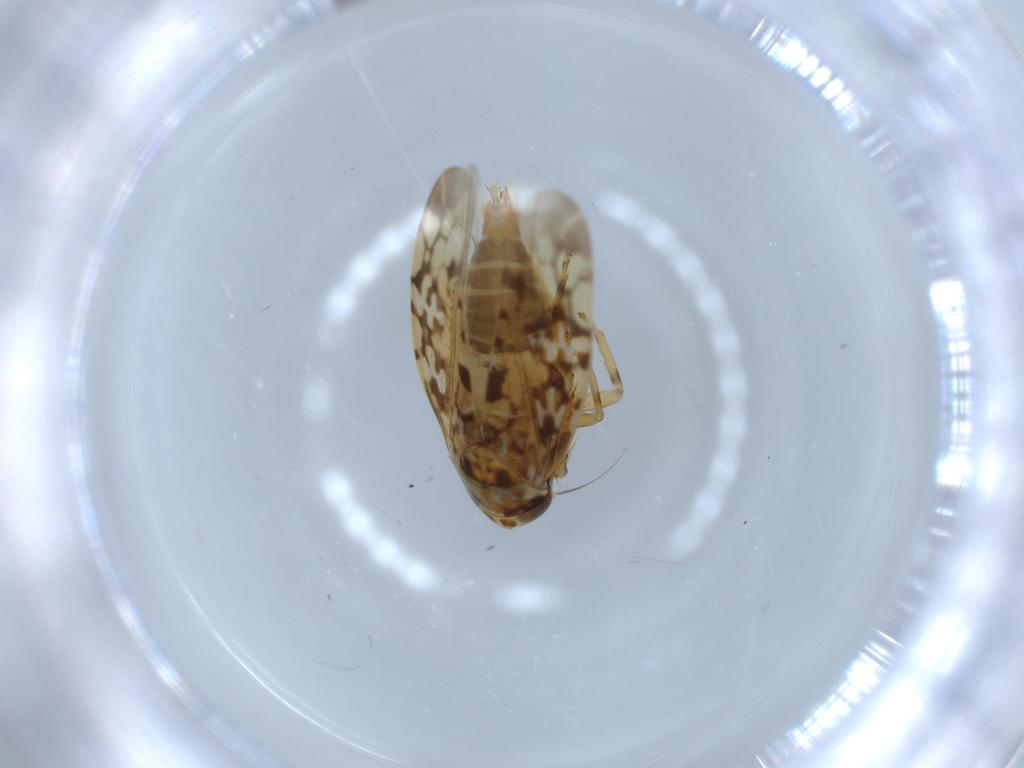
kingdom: Animalia
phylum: Arthropoda
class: Insecta
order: Hemiptera
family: Cicadellidae
